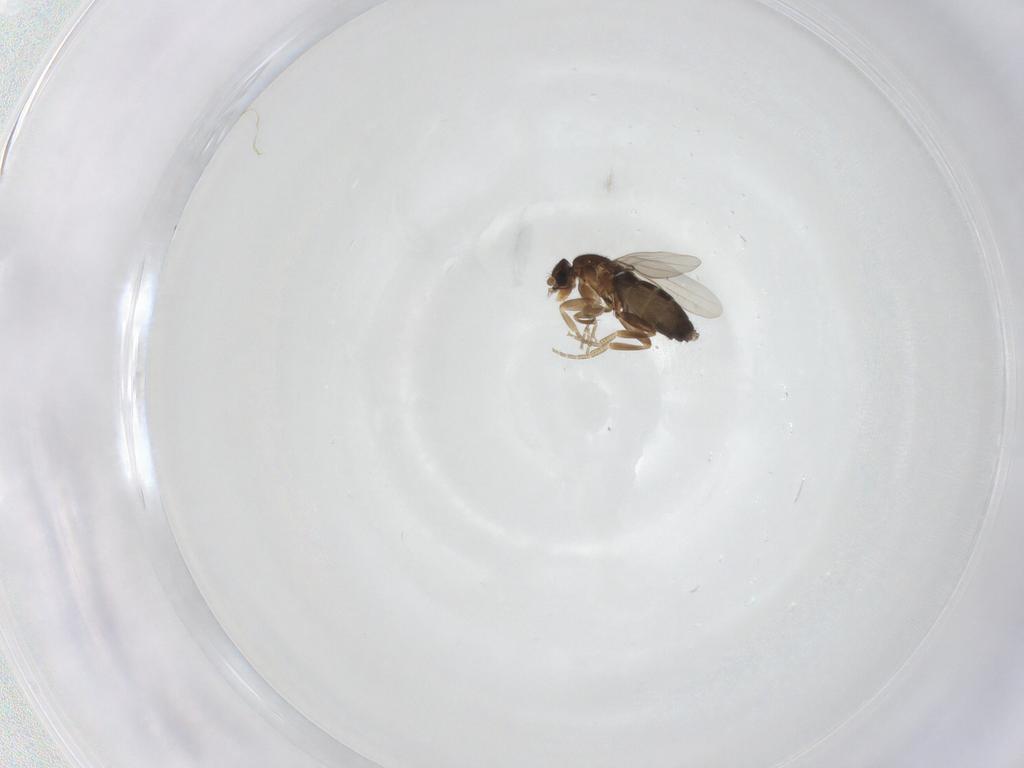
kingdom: Animalia
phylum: Arthropoda
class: Insecta
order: Diptera
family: Phoridae
